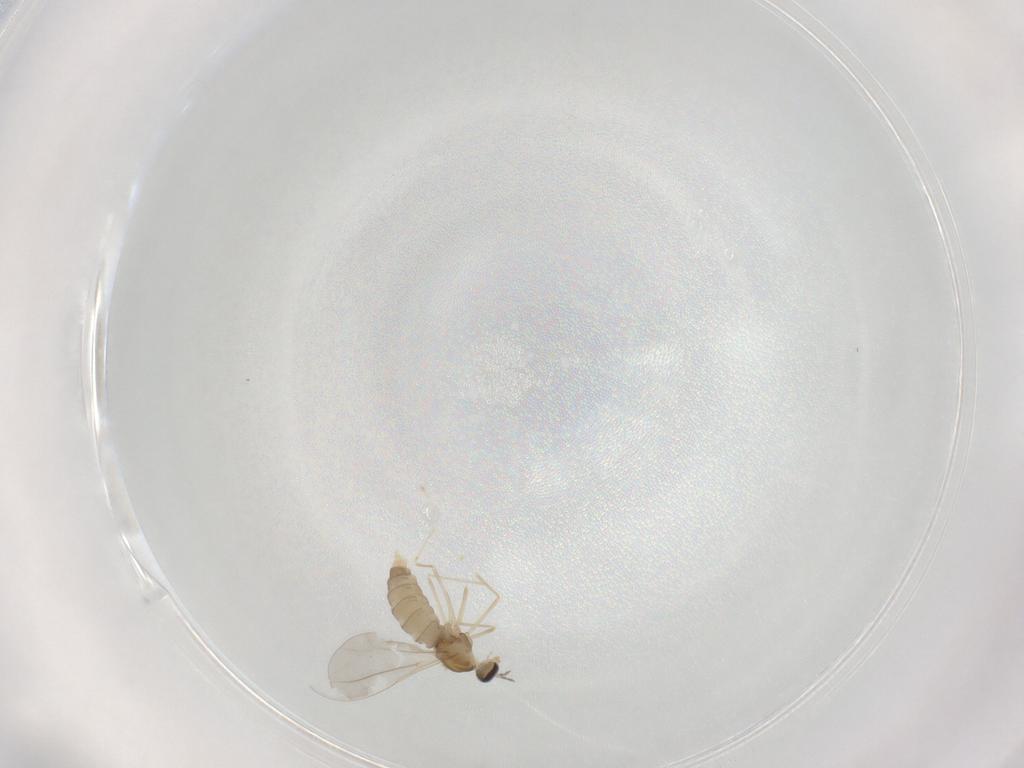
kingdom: Animalia
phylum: Arthropoda
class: Insecta
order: Diptera
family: Cecidomyiidae
